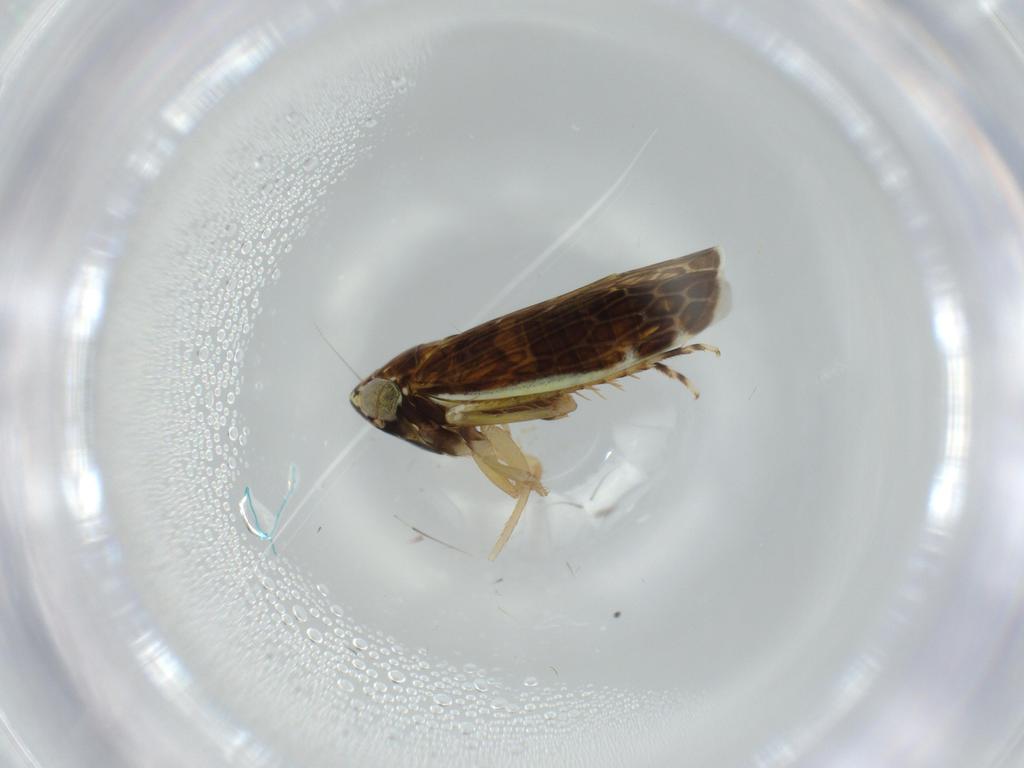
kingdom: Animalia
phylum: Arthropoda
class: Insecta
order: Hemiptera
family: Cicadellidae
